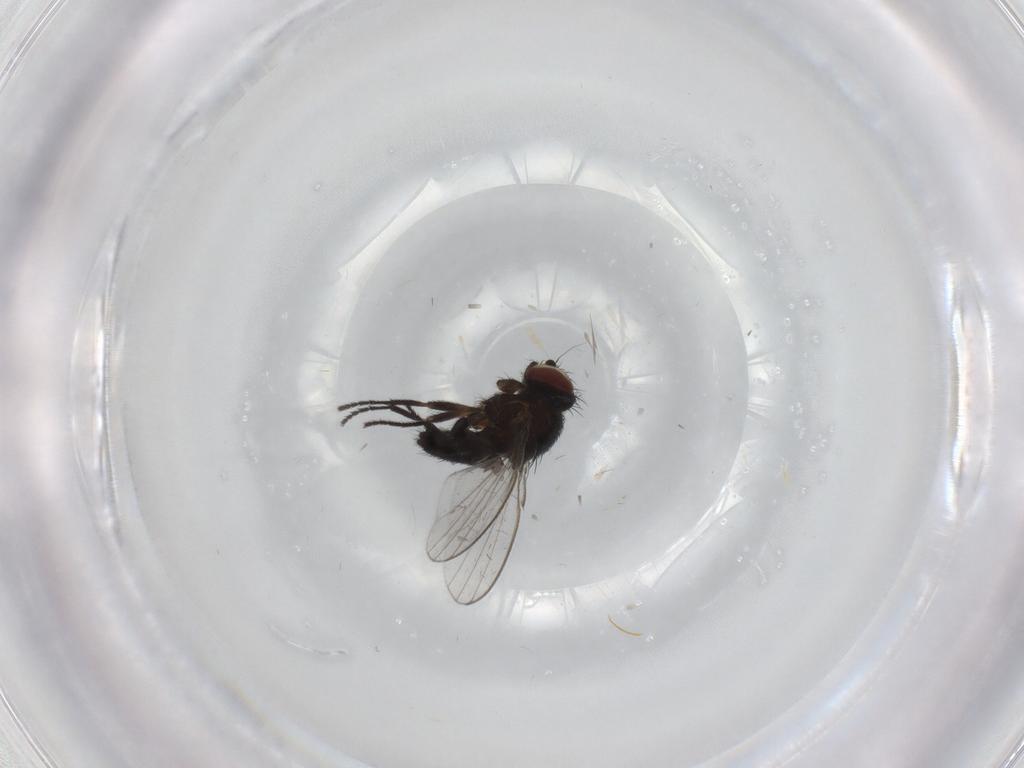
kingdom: Animalia
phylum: Arthropoda
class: Insecta
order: Diptera
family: Milichiidae
